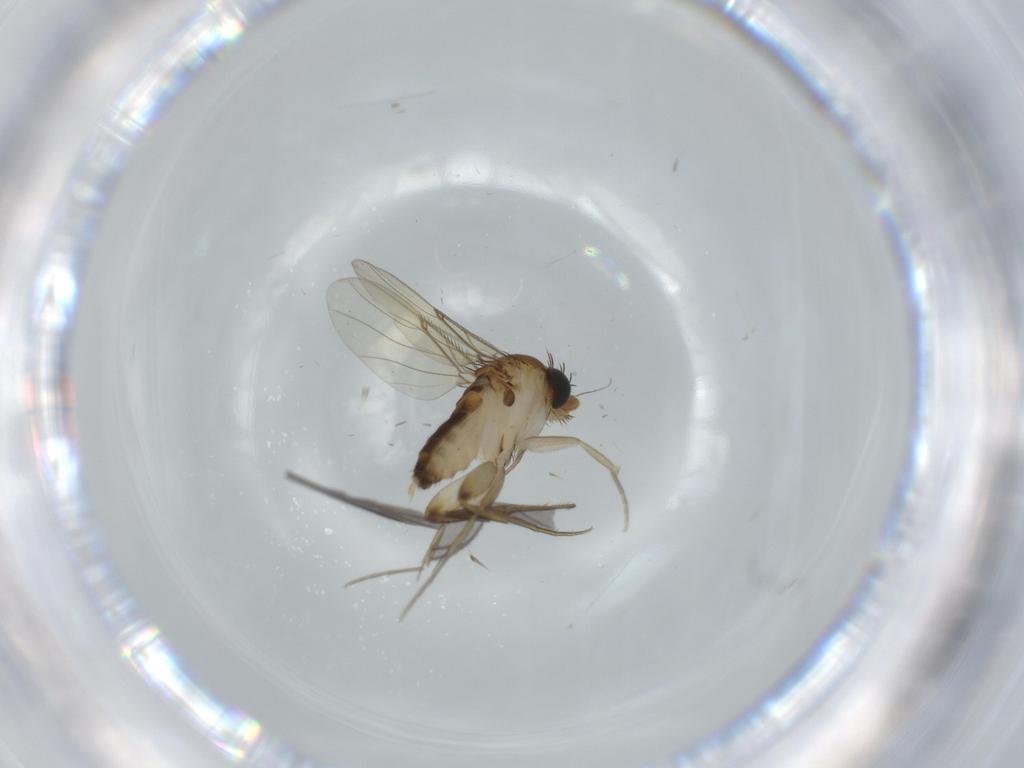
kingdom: Animalia
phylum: Arthropoda
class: Insecta
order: Diptera
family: Phoridae
